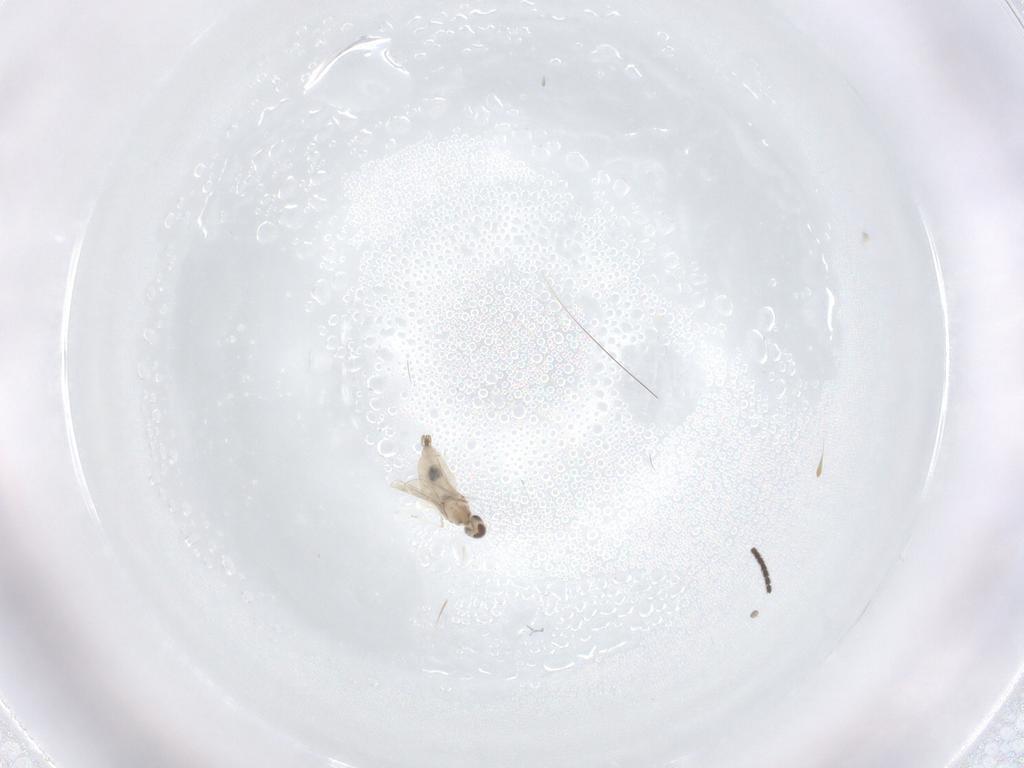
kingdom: Animalia
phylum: Arthropoda
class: Insecta
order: Diptera
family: Cecidomyiidae
